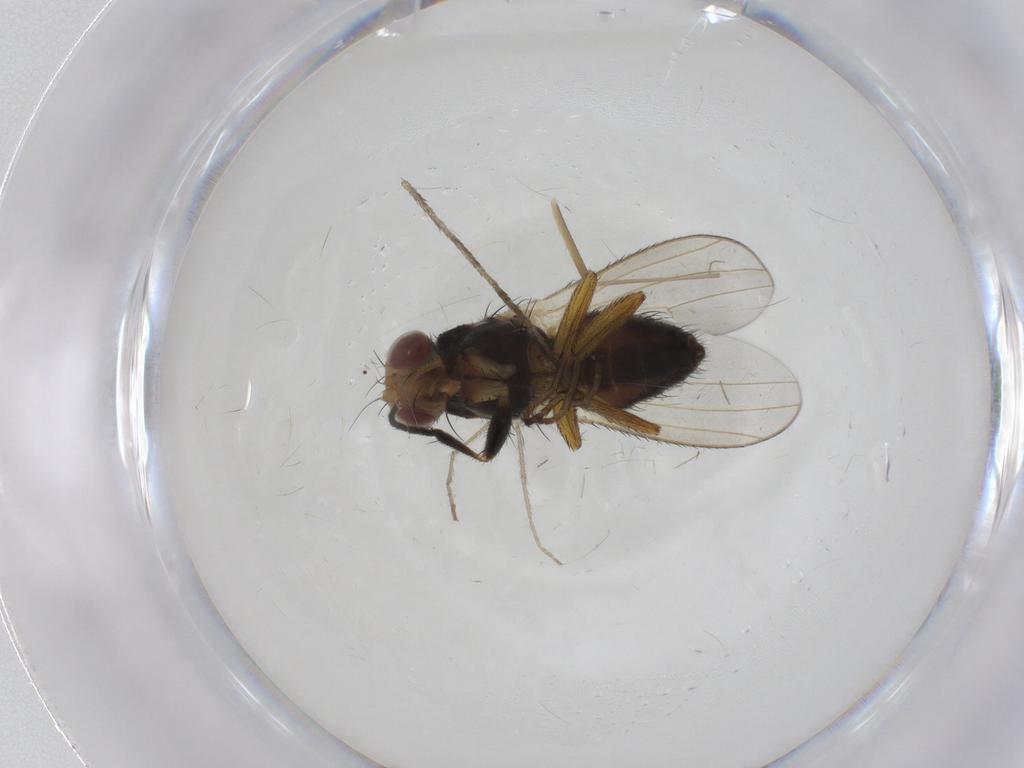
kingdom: Animalia
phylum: Arthropoda
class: Insecta
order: Diptera
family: Heleomyzidae
